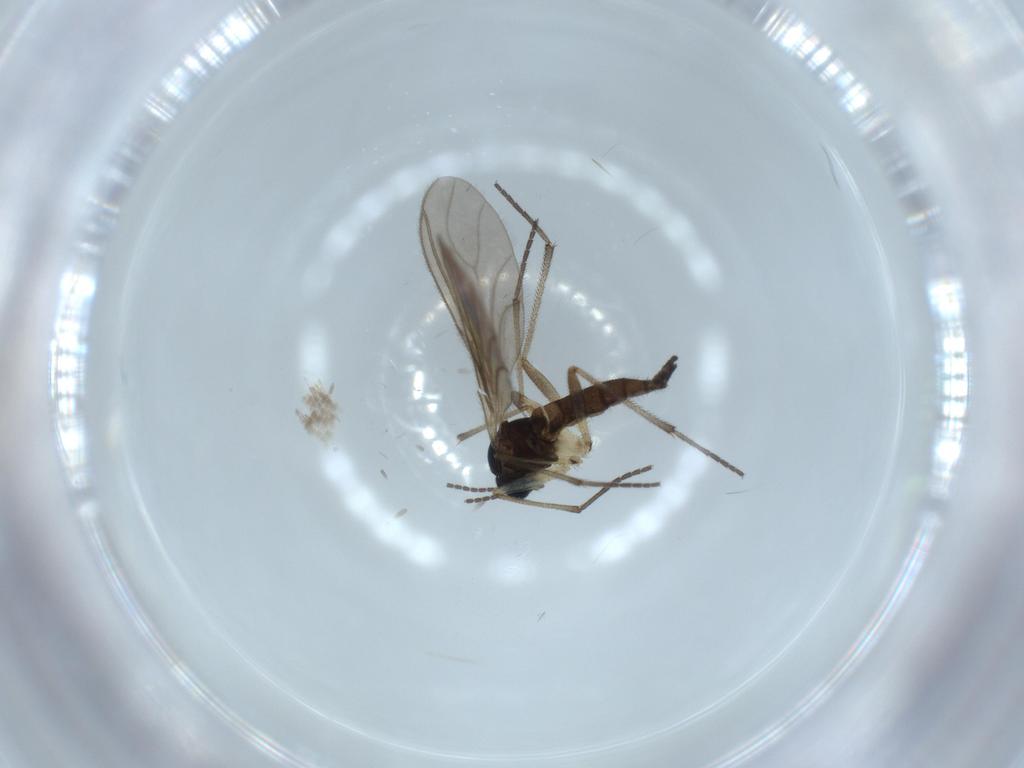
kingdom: Animalia
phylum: Arthropoda
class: Insecta
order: Diptera
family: Sciaridae
